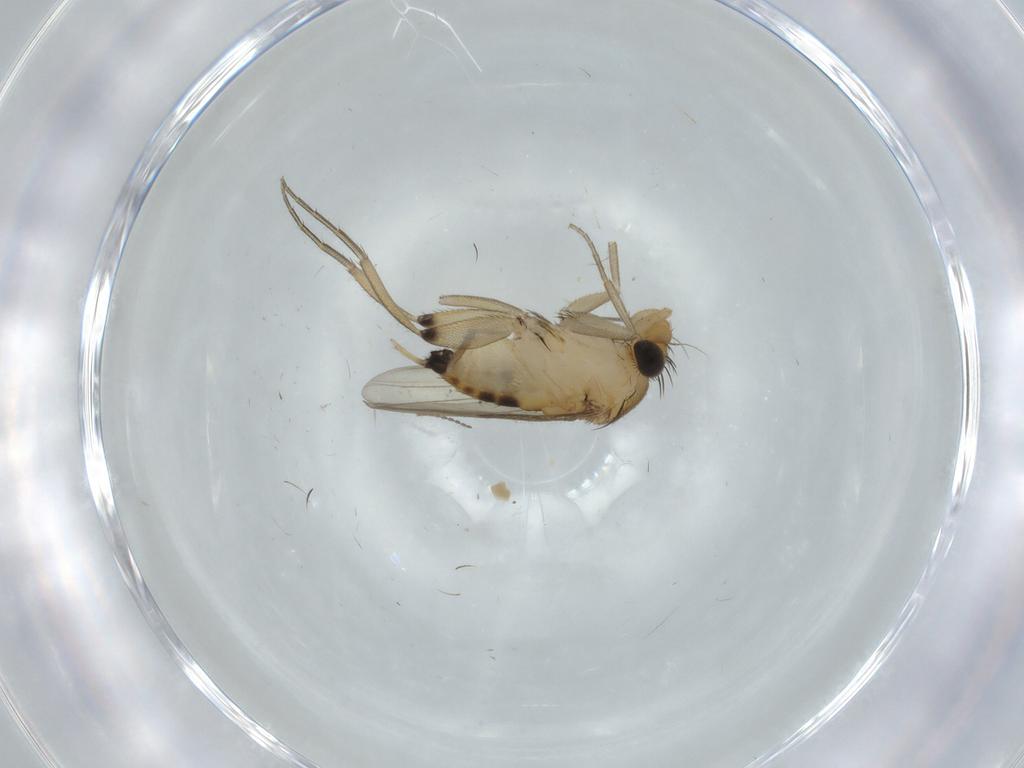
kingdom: Animalia
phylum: Arthropoda
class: Insecta
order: Diptera
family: Phoridae
